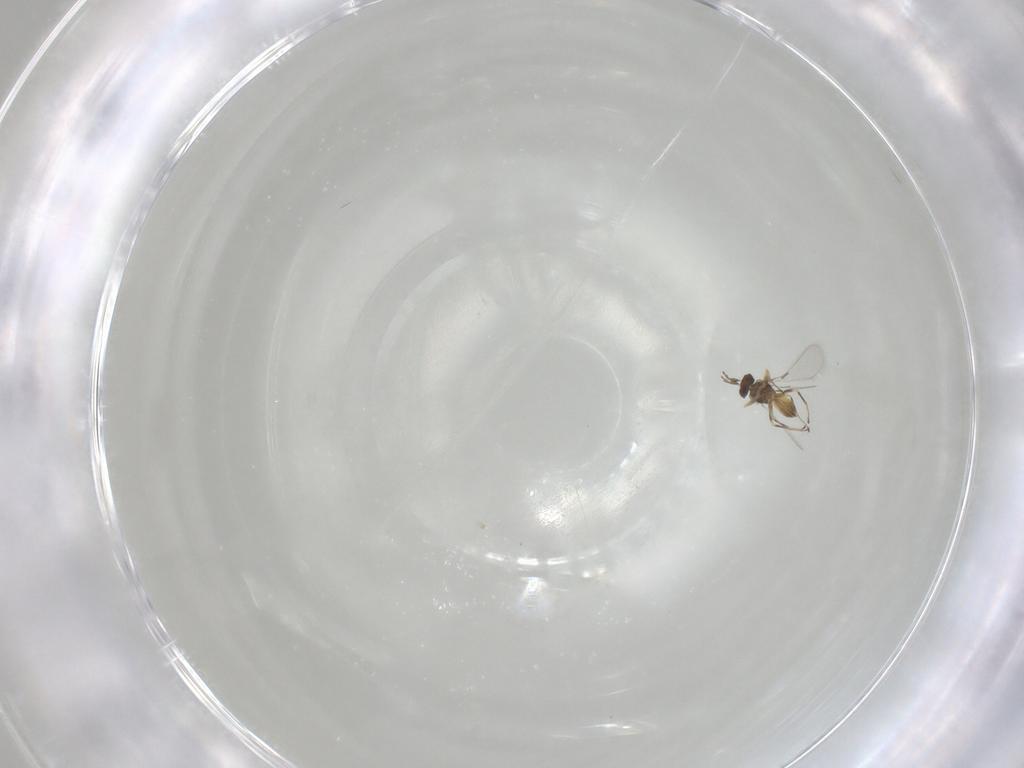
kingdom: Animalia
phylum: Arthropoda
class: Insecta
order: Hymenoptera
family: Mymaridae
